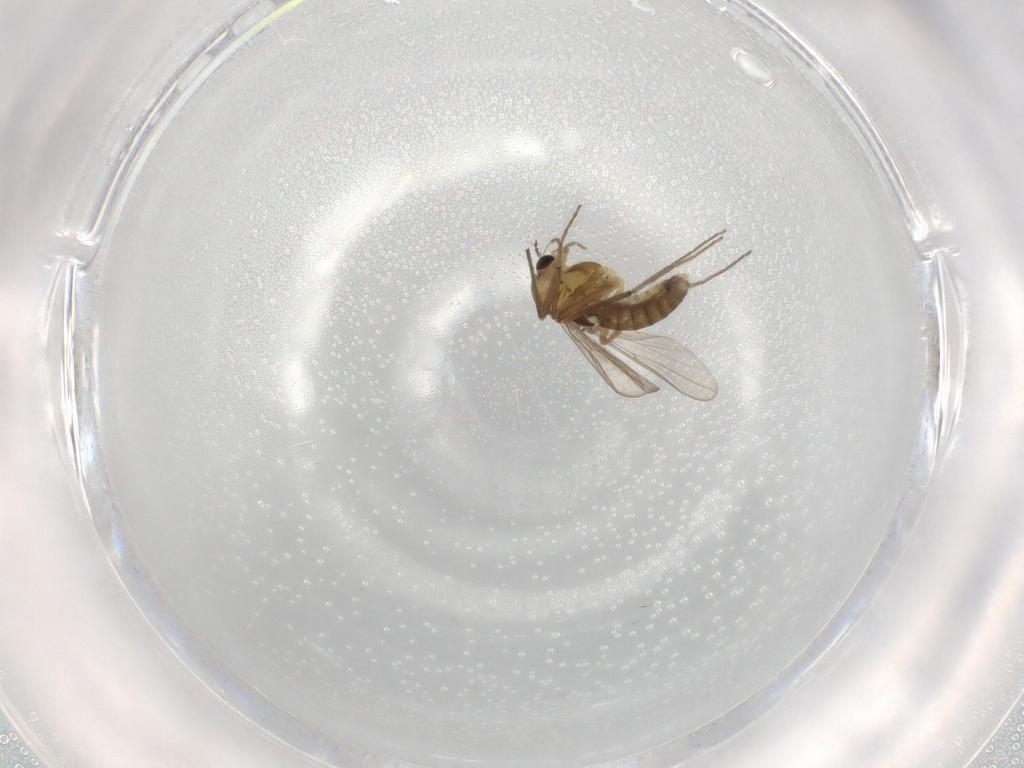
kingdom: Animalia
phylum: Arthropoda
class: Insecta
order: Diptera
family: Chironomidae
